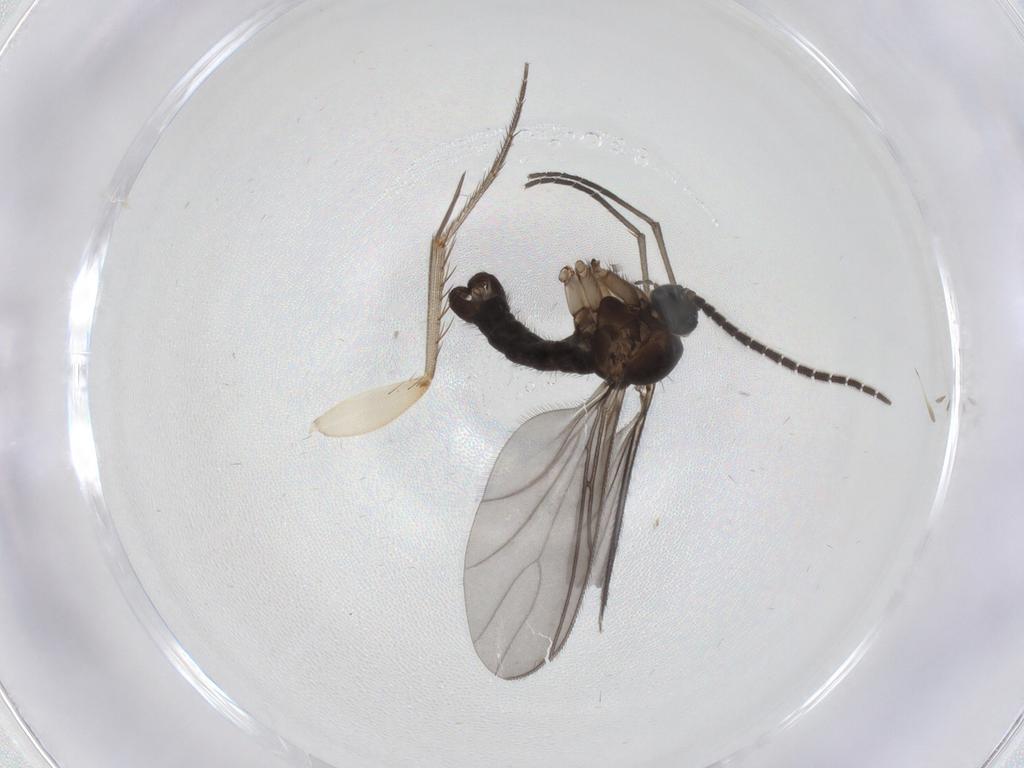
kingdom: Animalia
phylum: Arthropoda
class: Insecta
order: Diptera
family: Sciaridae
